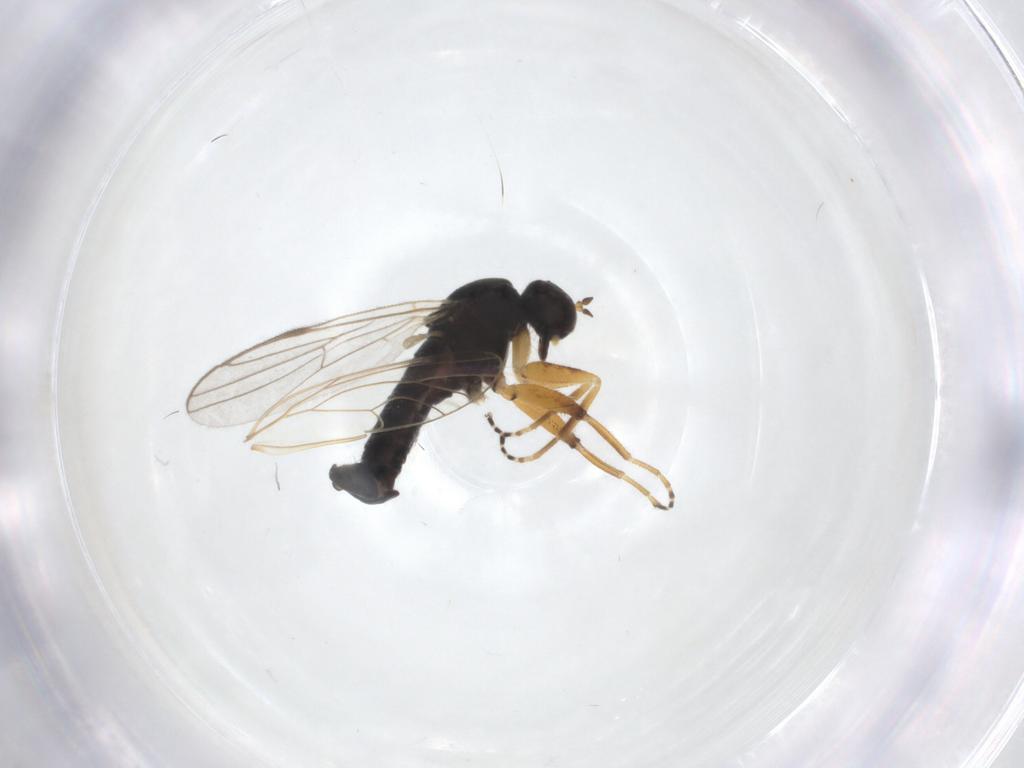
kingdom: Animalia
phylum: Arthropoda
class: Insecta
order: Diptera
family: Hybotidae
